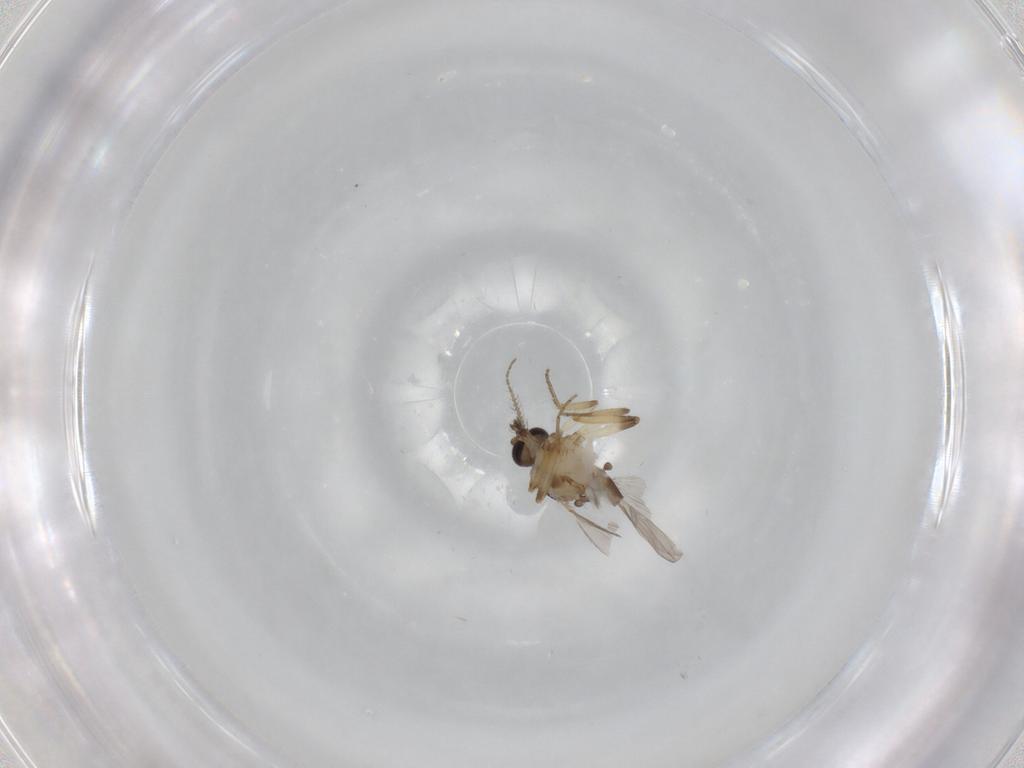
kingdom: Animalia
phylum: Arthropoda
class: Insecta
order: Diptera
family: Ceratopogonidae
